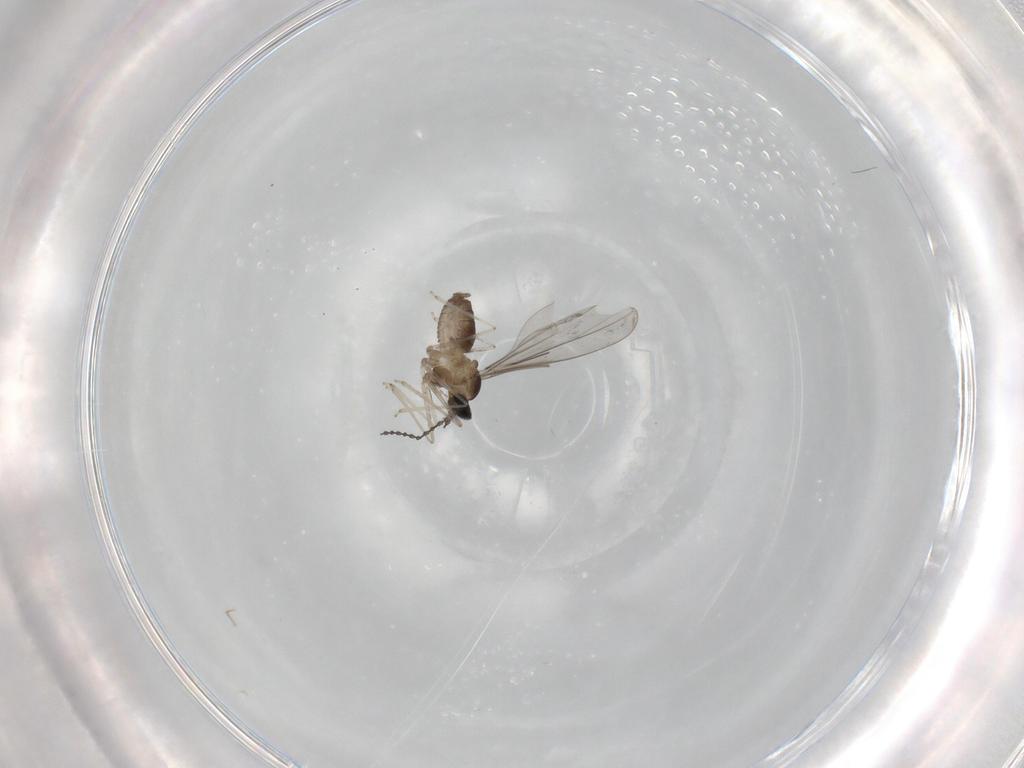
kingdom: Animalia
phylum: Arthropoda
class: Insecta
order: Diptera
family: Cecidomyiidae
